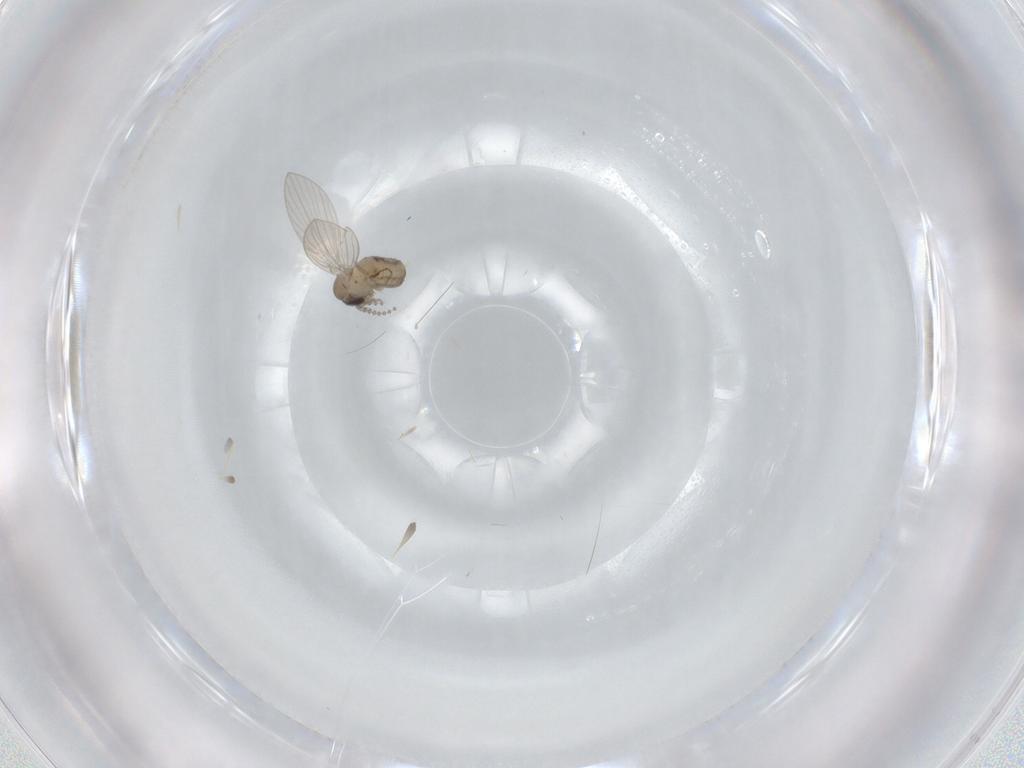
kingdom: Animalia
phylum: Arthropoda
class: Insecta
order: Diptera
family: Psychodidae
